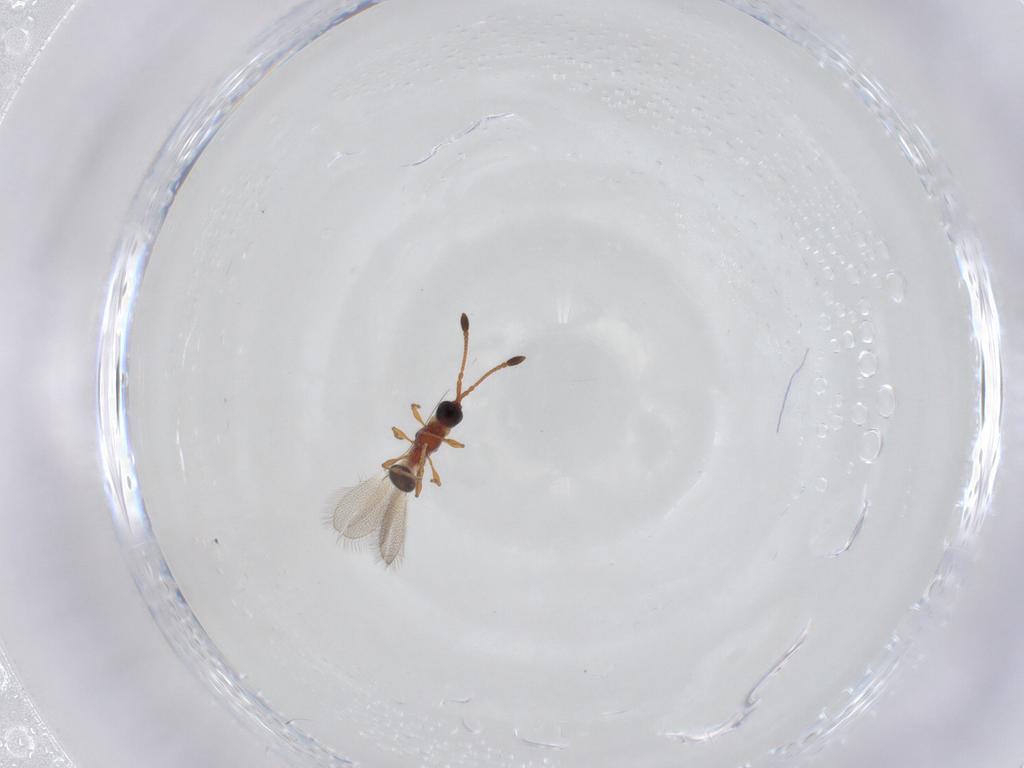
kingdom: Animalia
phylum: Arthropoda
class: Insecta
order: Hymenoptera
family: Diapriidae
